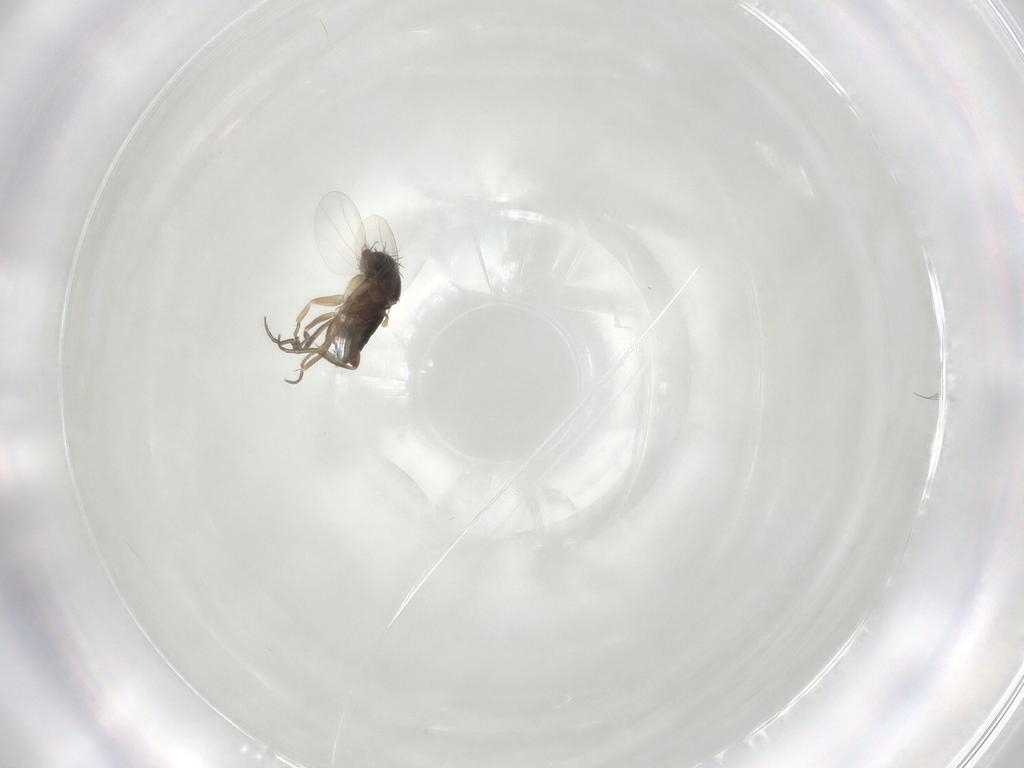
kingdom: Animalia
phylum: Arthropoda
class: Insecta
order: Diptera
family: Phoridae
